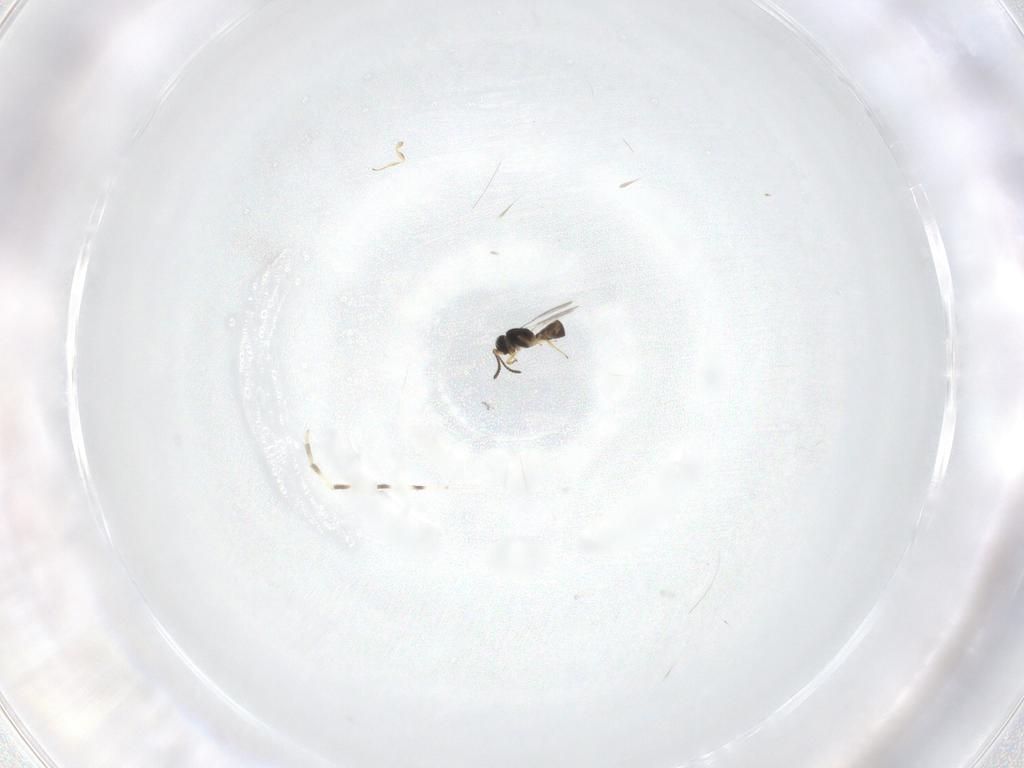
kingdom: Animalia
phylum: Arthropoda
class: Insecta
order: Hymenoptera
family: Scelionidae
